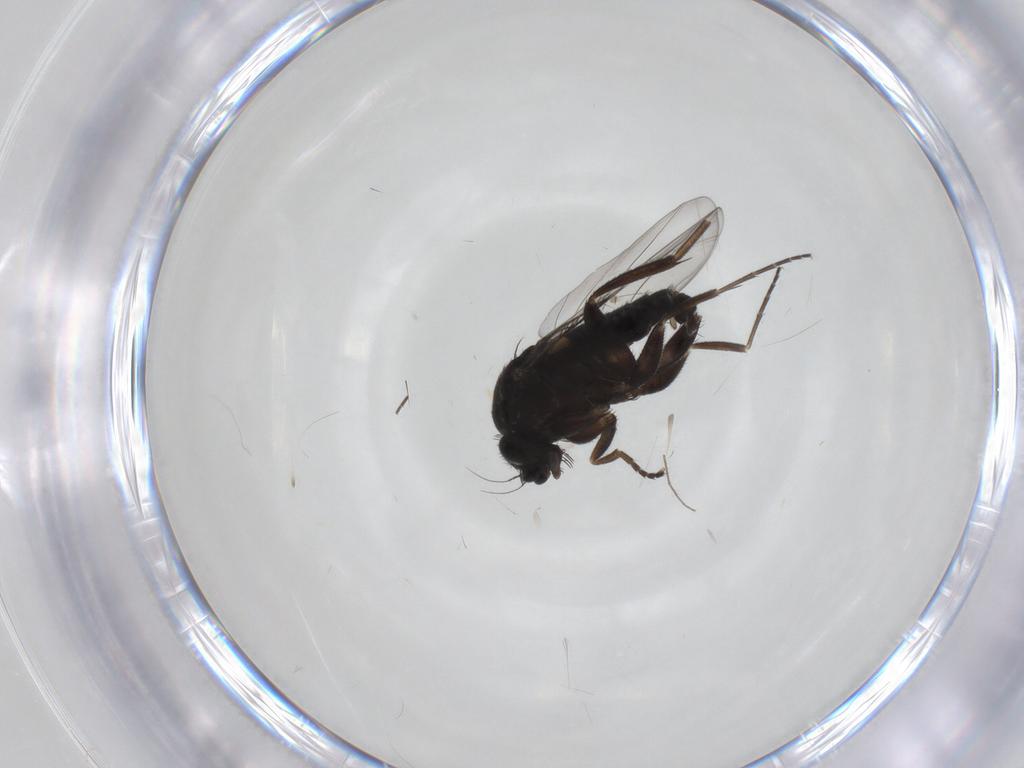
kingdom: Animalia
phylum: Arthropoda
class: Insecta
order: Diptera
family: Phoridae
